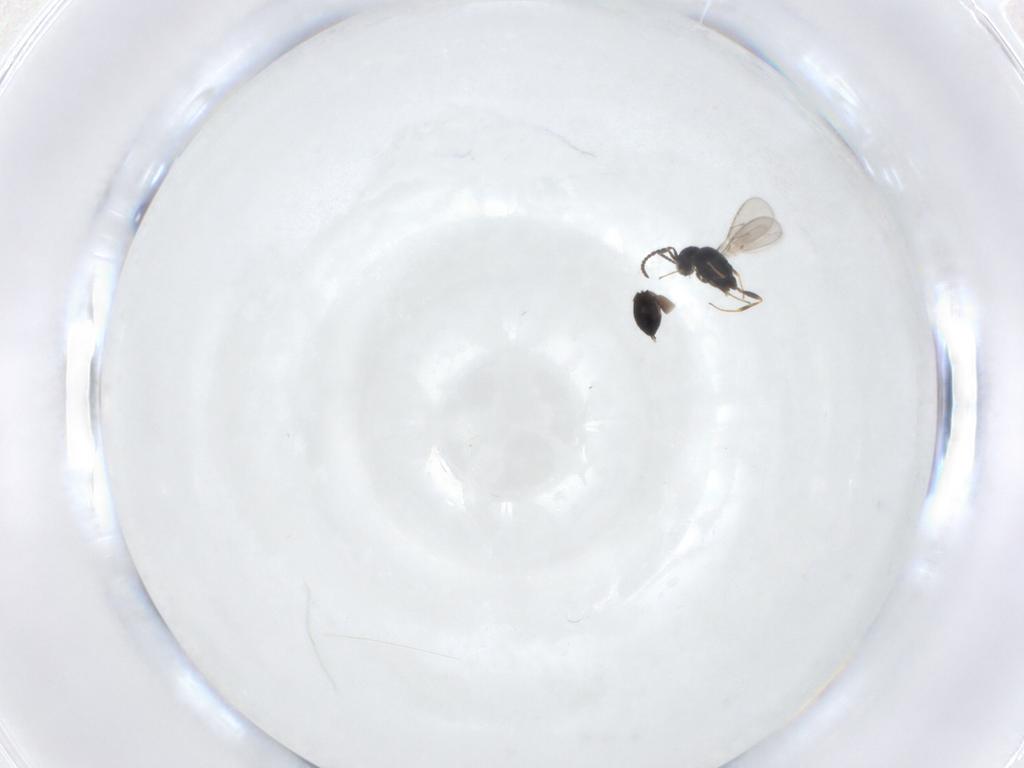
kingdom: Animalia
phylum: Arthropoda
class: Insecta
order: Hymenoptera
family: Scelionidae
